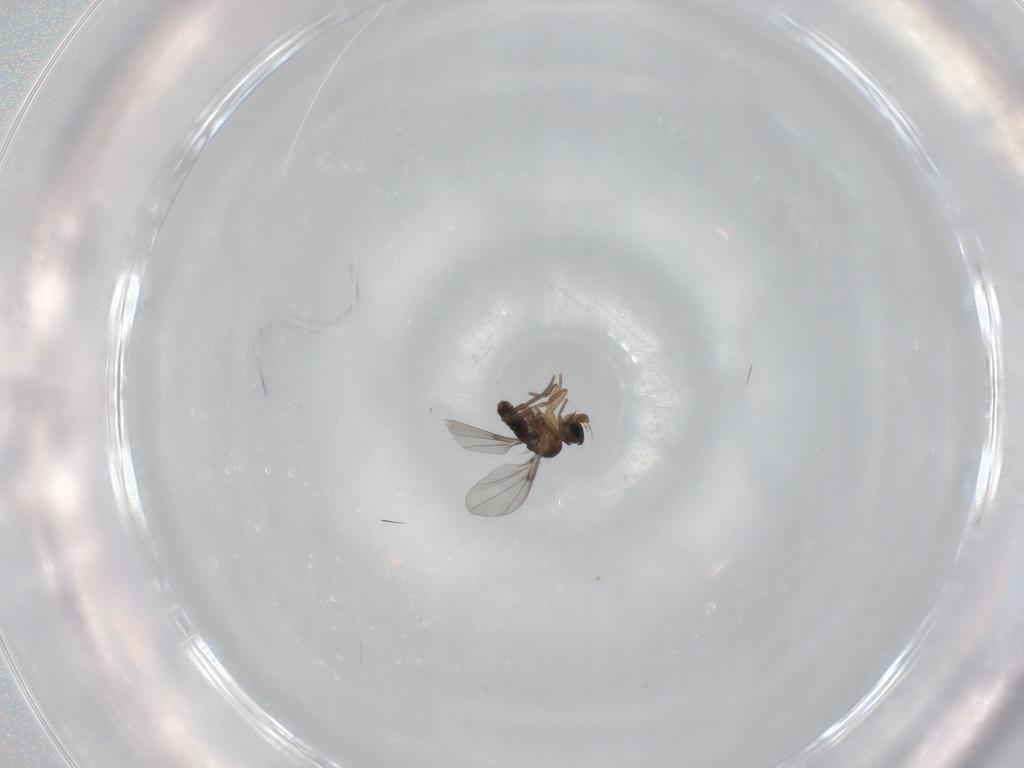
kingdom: Animalia
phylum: Arthropoda
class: Insecta
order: Diptera
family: Phoridae
